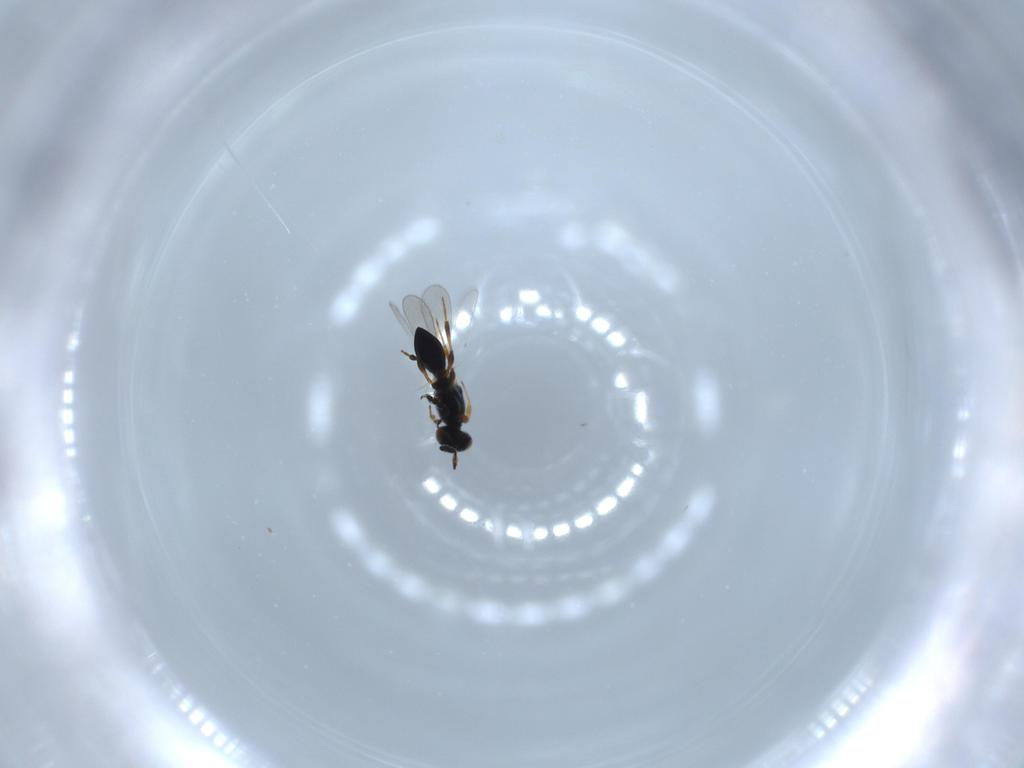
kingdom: Animalia
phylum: Arthropoda
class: Insecta
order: Hymenoptera
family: Platygastridae
